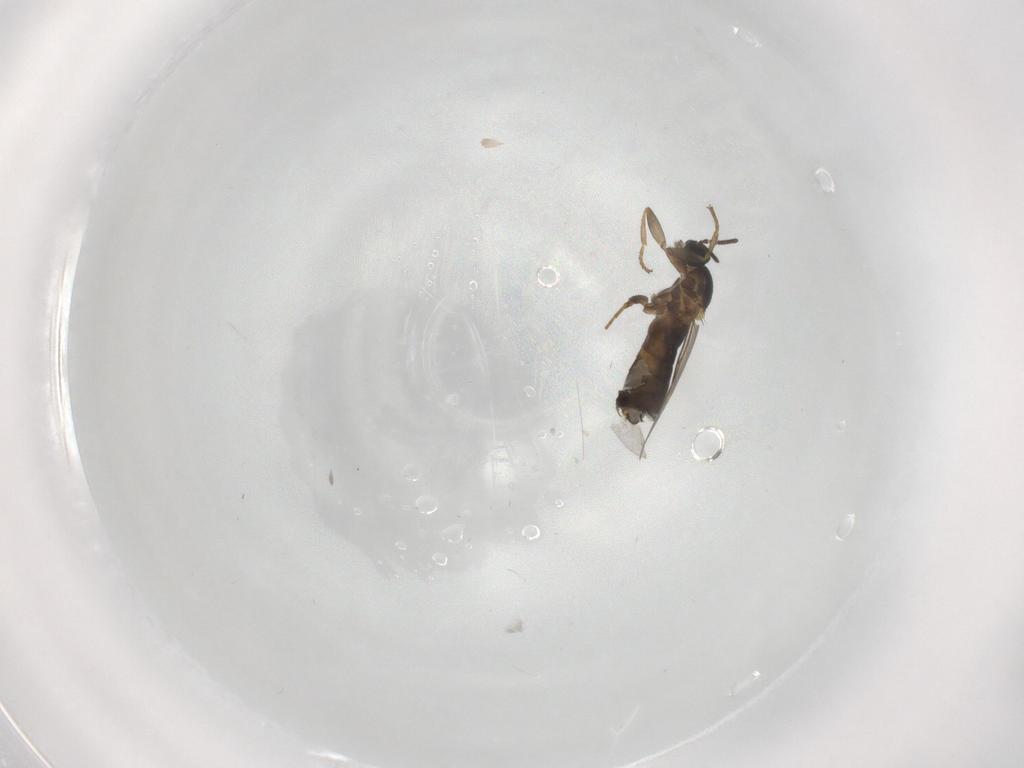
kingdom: Animalia
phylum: Arthropoda
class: Insecta
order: Diptera
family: Scatopsidae
